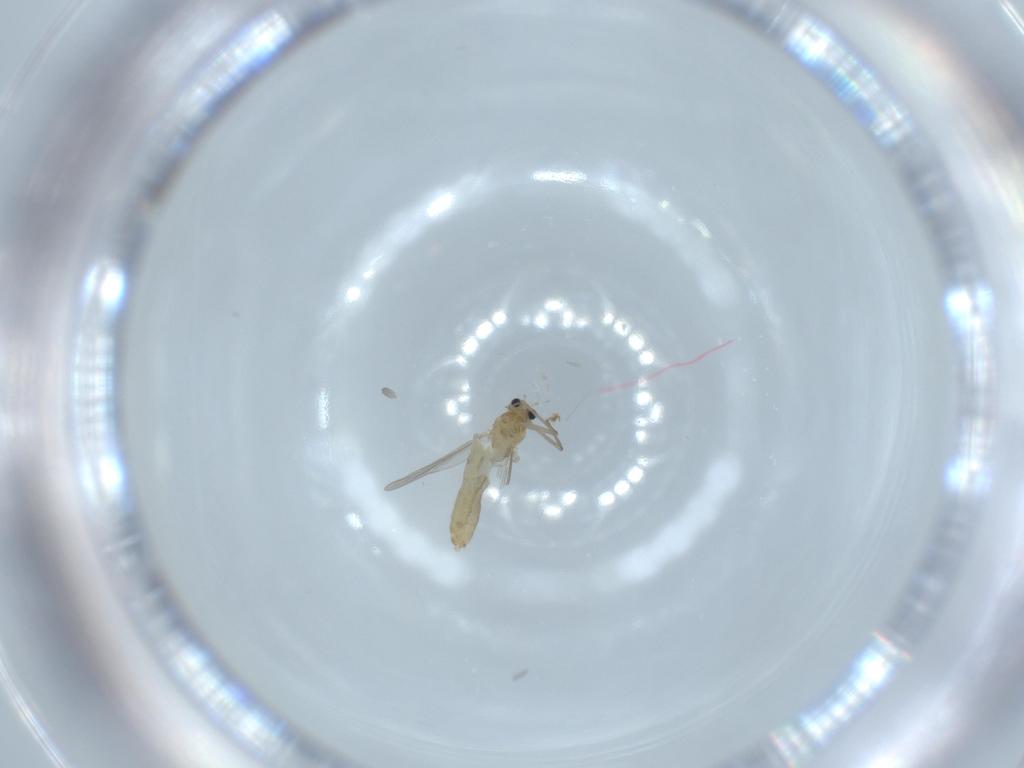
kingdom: Animalia
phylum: Arthropoda
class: Insecta
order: Diptera
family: Chironomidae
